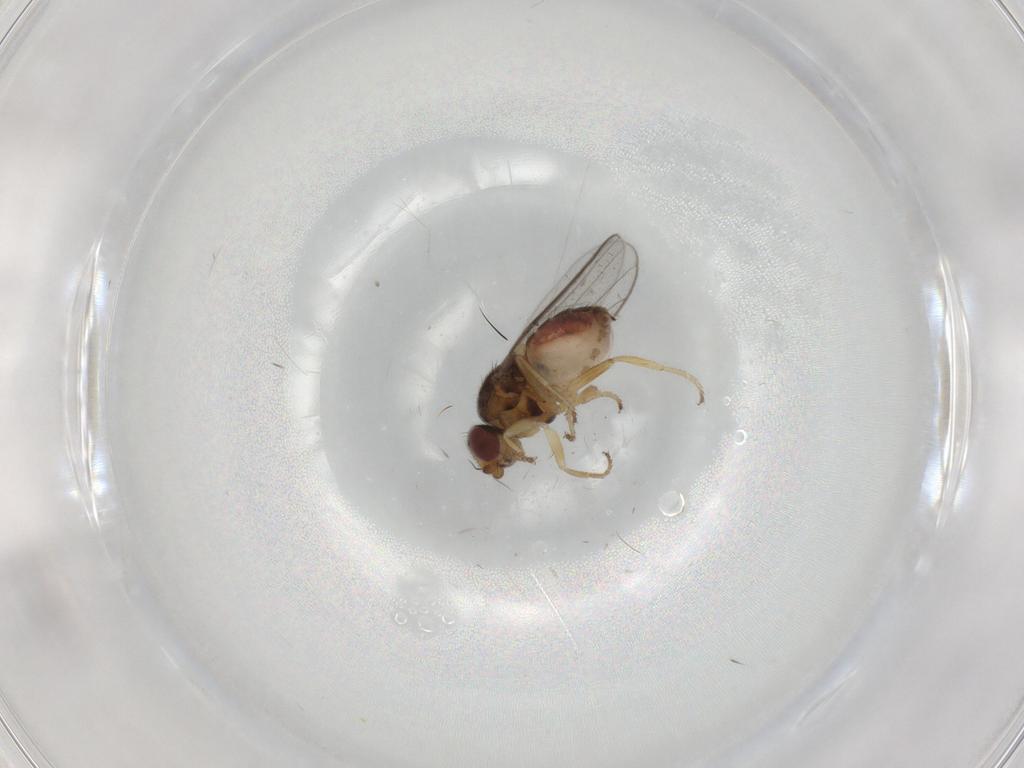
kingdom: Animalia
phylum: Arthropoda
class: Insecta
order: Diptera
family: Chloropidae
